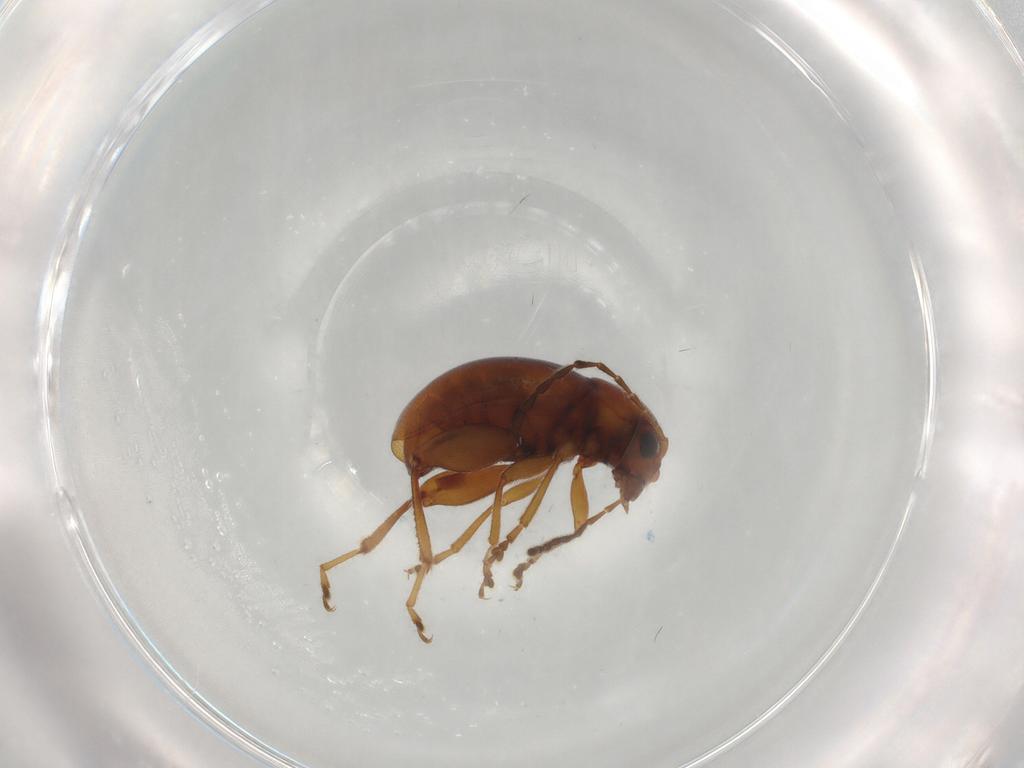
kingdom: Animalia
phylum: Arthropoda
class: Insecta
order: Coleoptera
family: Chrysomelidae
